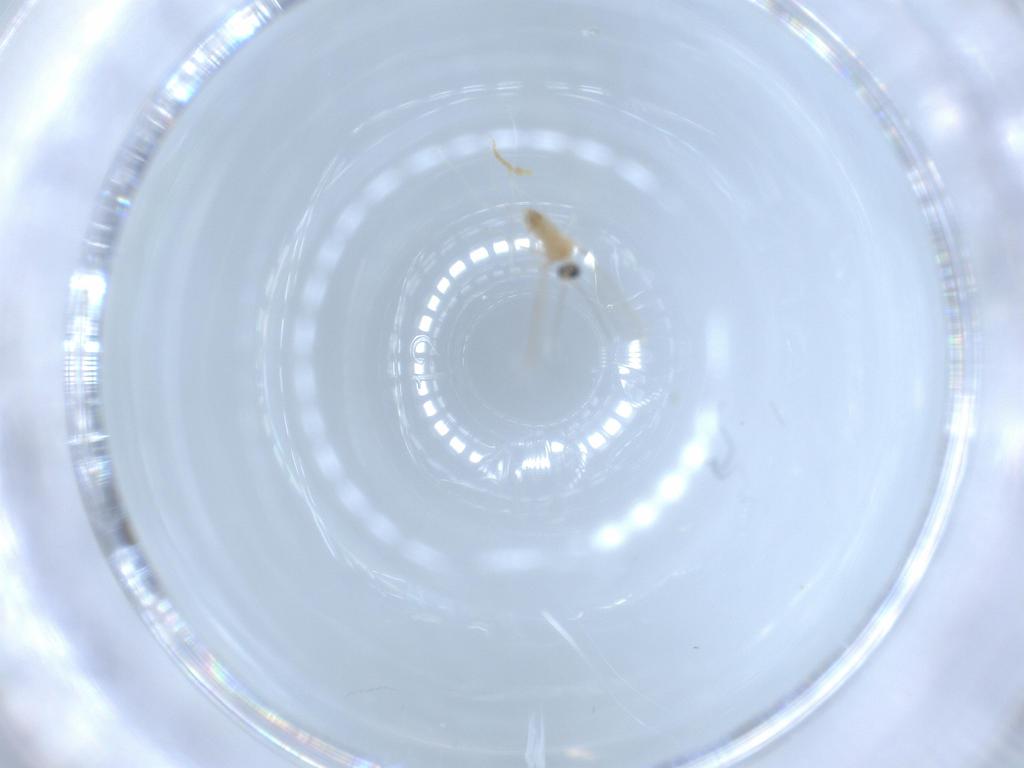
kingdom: Animalia
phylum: Arthropoda
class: Insecta
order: Diptera
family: Cecidomyiidae
